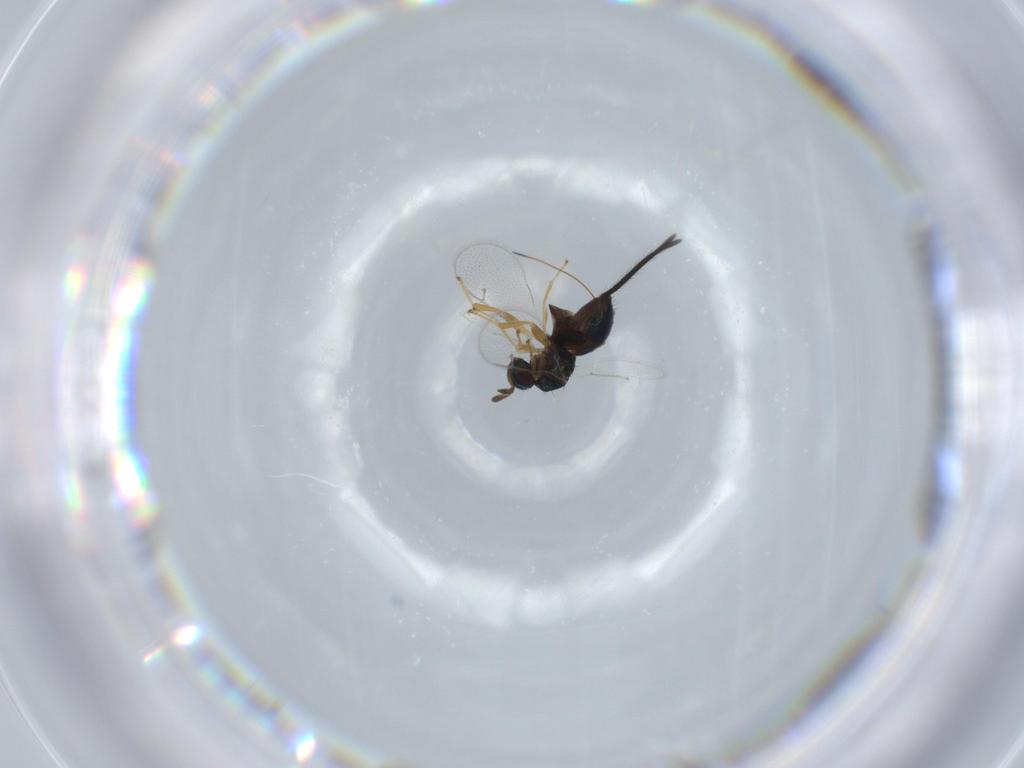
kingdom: Animalia
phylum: Arthropoda
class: Insecta
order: Hymenoptera
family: Torymidae
